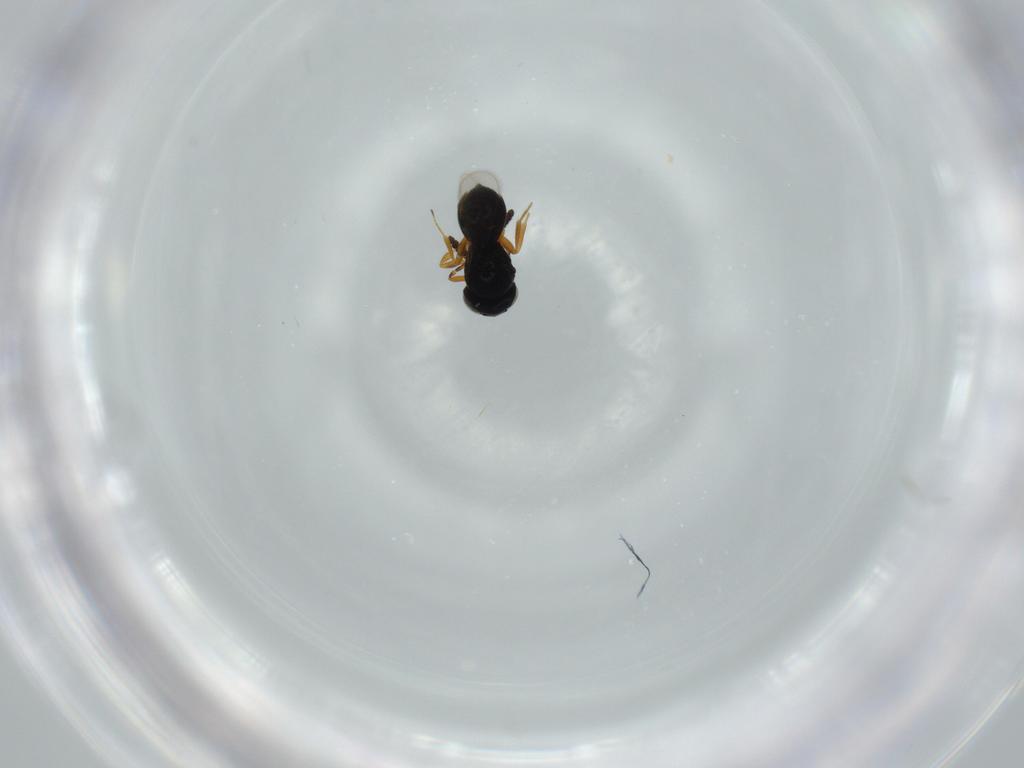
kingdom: Animalia
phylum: Arthropoda
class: Insecta
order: Hymenoptera
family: Scelionidae
